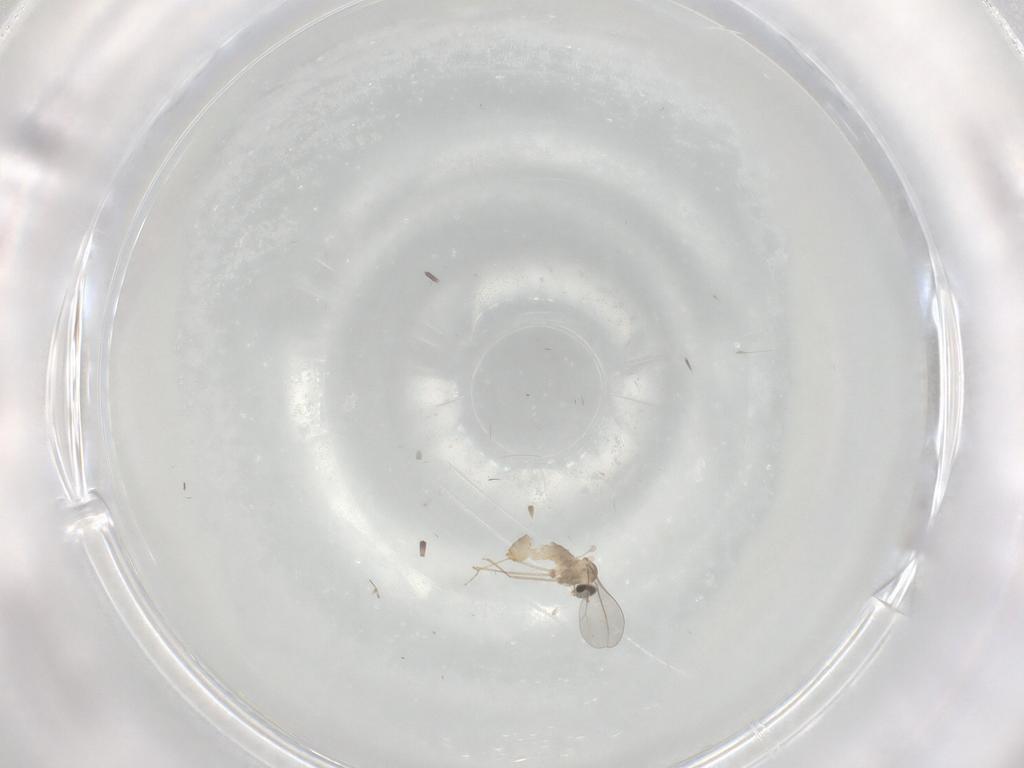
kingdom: Animalia
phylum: Arthropoda
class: Insecta
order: Diptera
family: Cecidomyiidae
